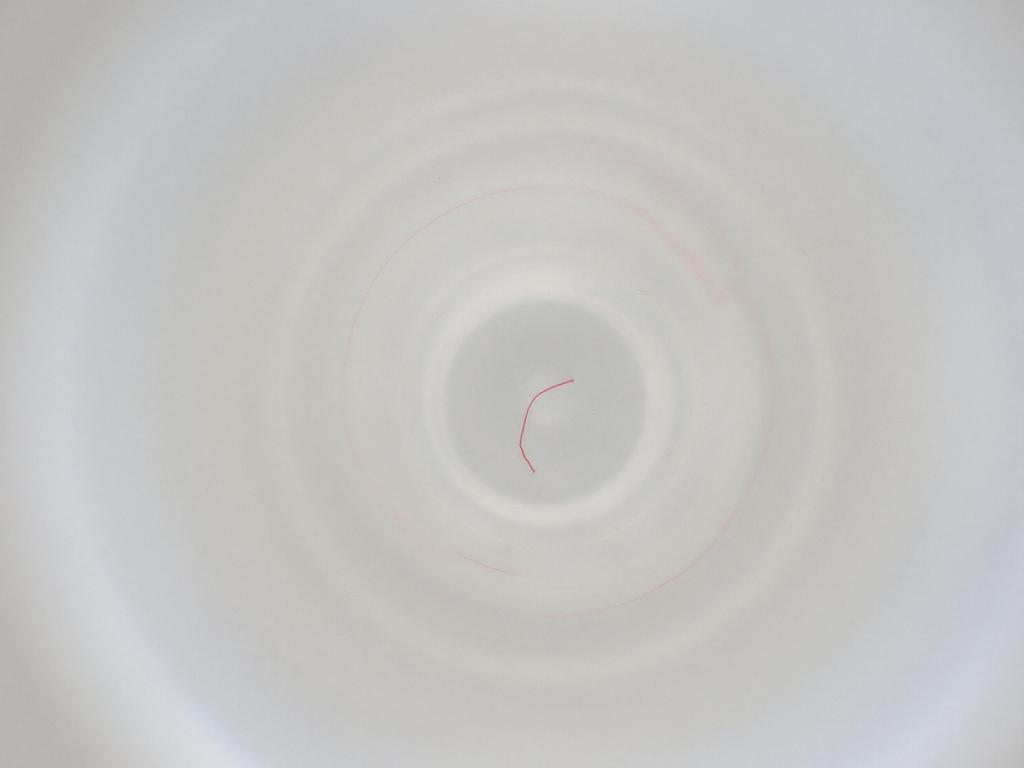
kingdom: Animalia
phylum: Arthropoda
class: Insecta
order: Diptera
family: Cecidomyiidae
